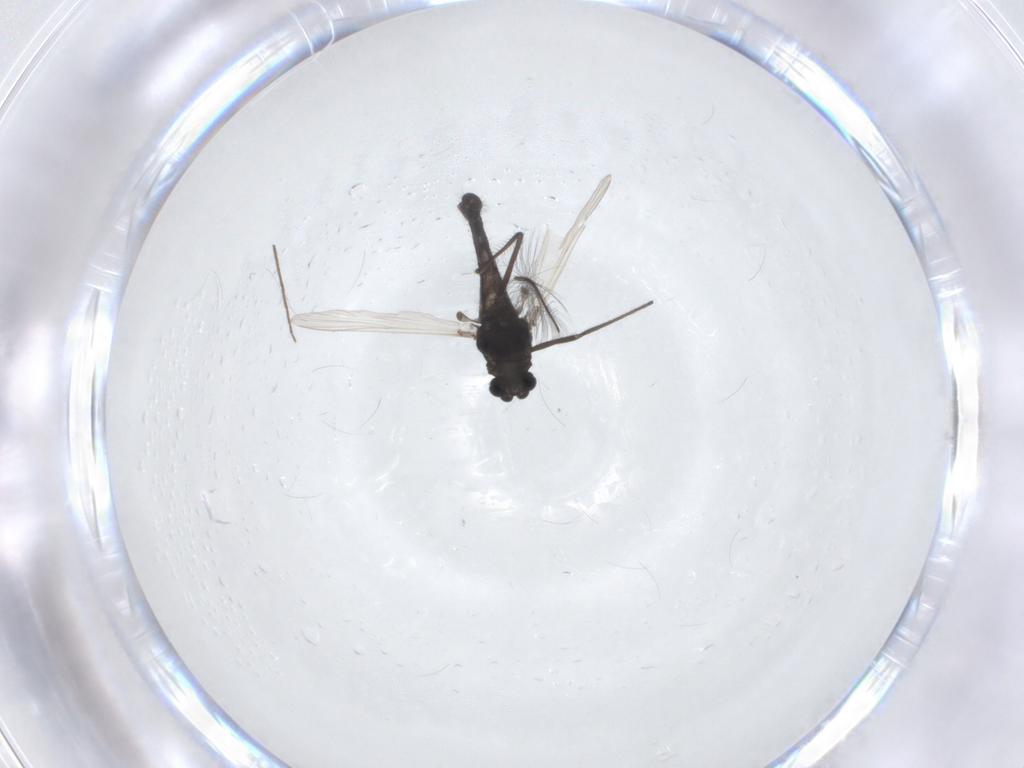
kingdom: Animalia
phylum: Arthropoda
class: Insecta
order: Diptera
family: Chironomidae
